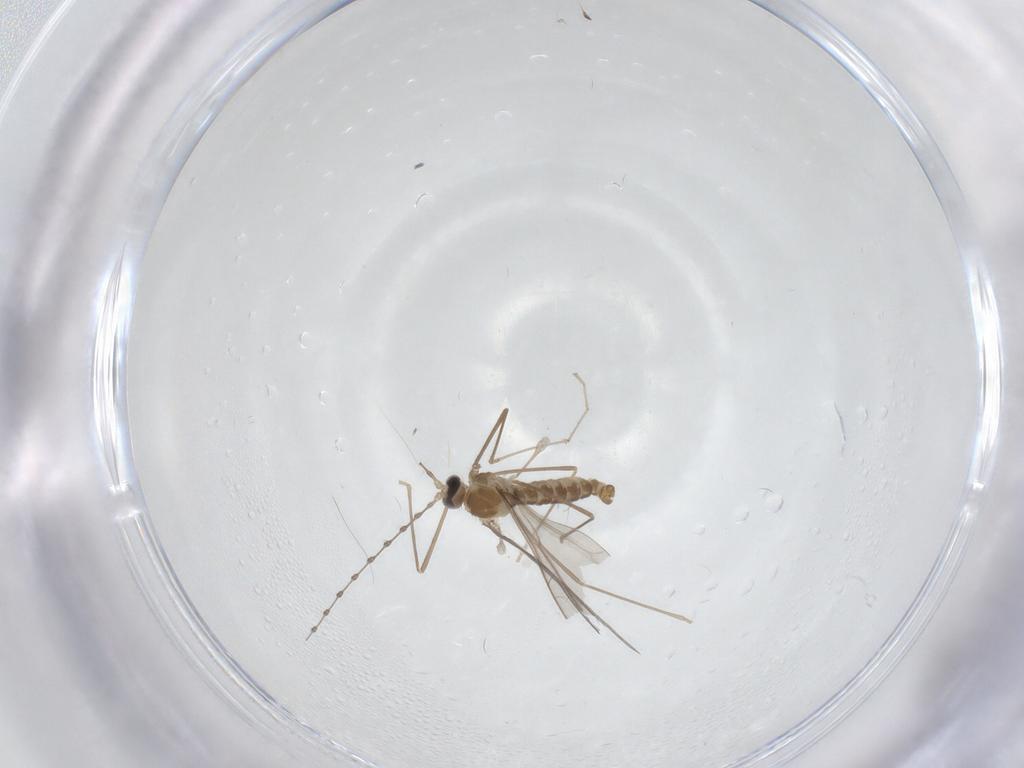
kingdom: Animalia
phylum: Arthropoda
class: Insecta
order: Diptera
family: Cecidomyiidae
